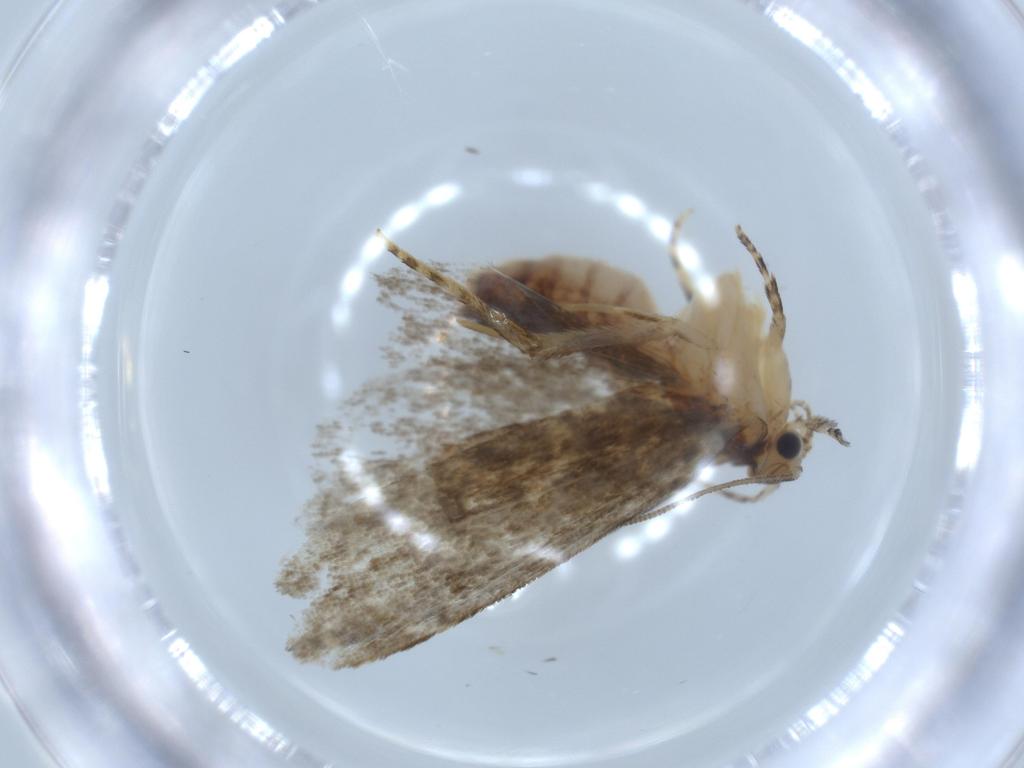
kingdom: Animalia
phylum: Arthropoda
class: Insecta
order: Lepidoptera
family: Tineidae
